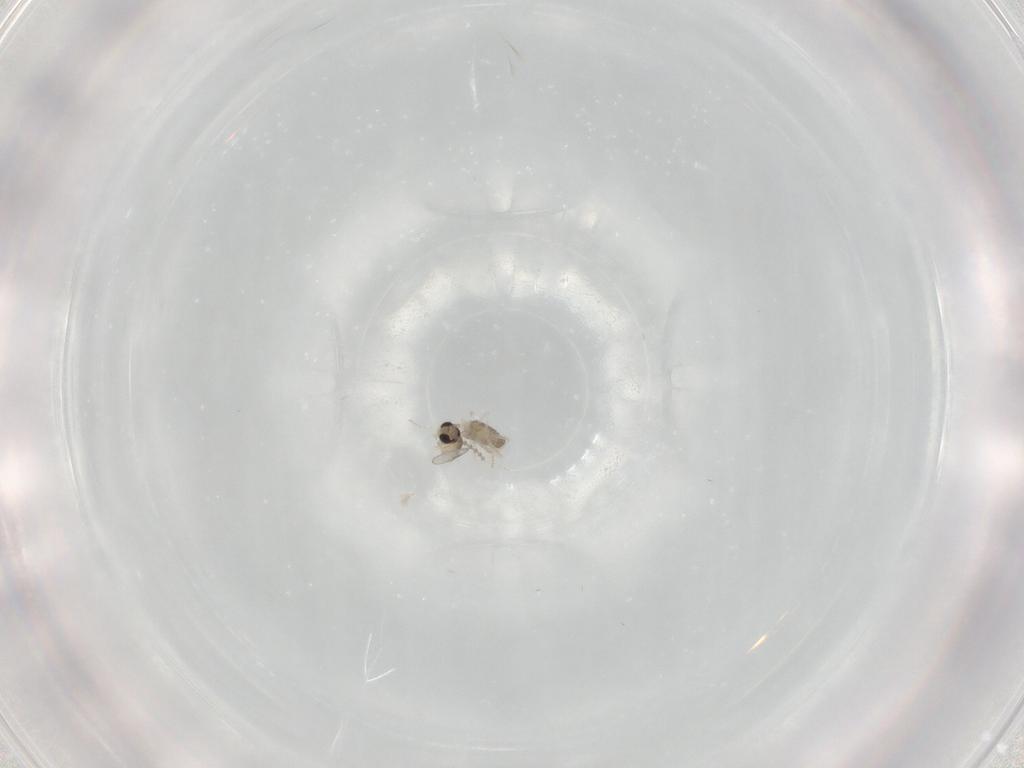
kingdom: Animalia
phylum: Arthropoda
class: Insecta
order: Diptera
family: Cecidomyiidae
